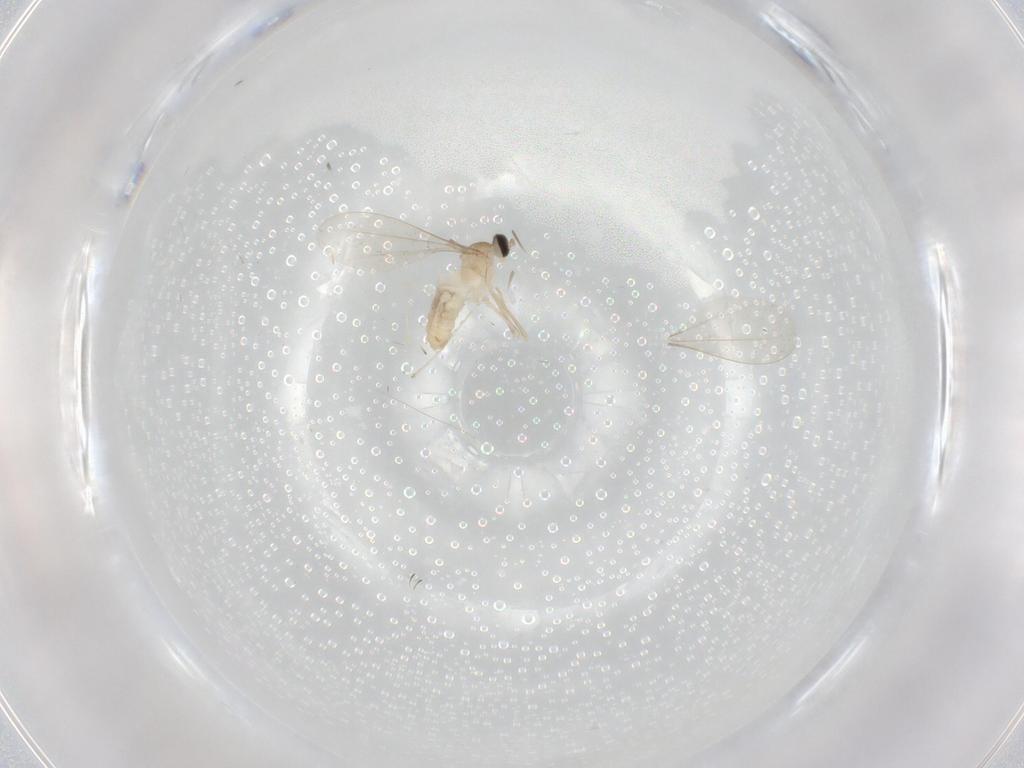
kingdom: Animalia
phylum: Arthropoda
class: Insecta
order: Diptera
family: Cecidomyiidae
